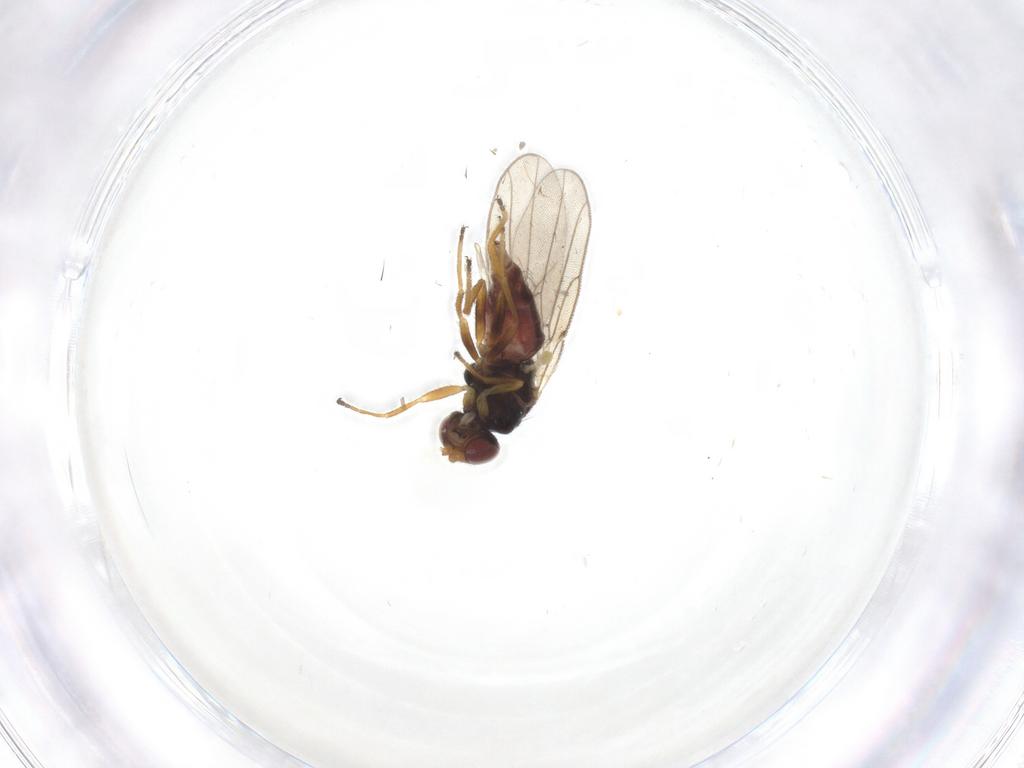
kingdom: Animalia
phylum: Arthropoda
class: Insecta
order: Diptera
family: Chloropidae
